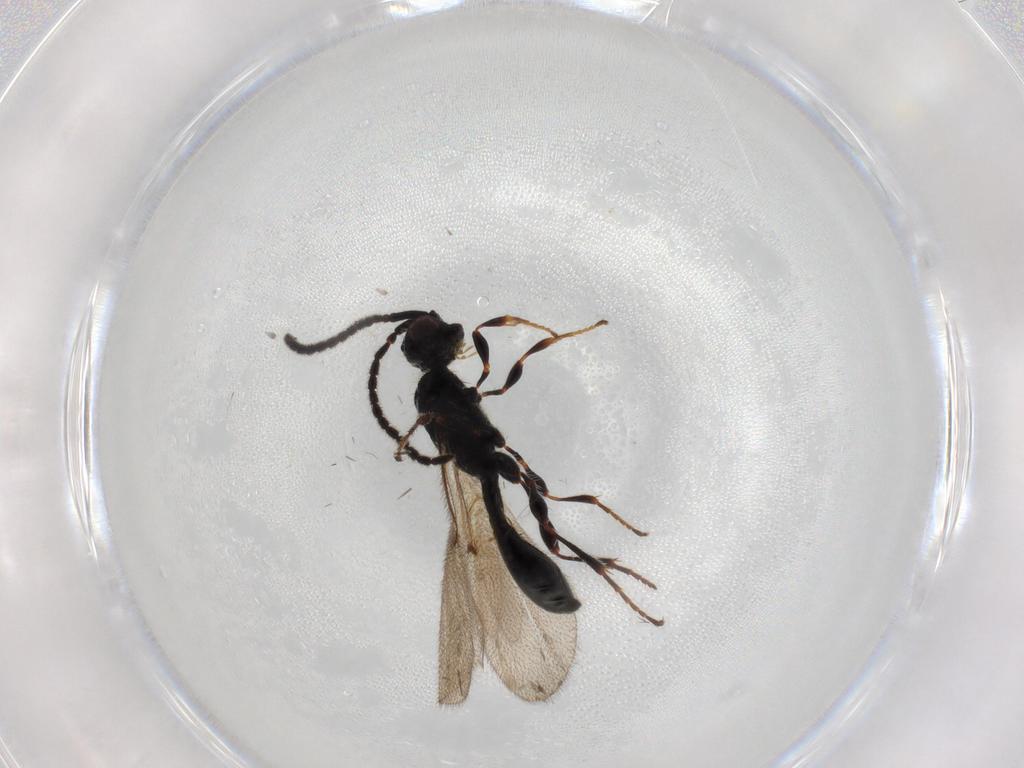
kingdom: Animalia
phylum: Arthropoda
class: Insecta
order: Hymenoptera
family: Diapriidae
